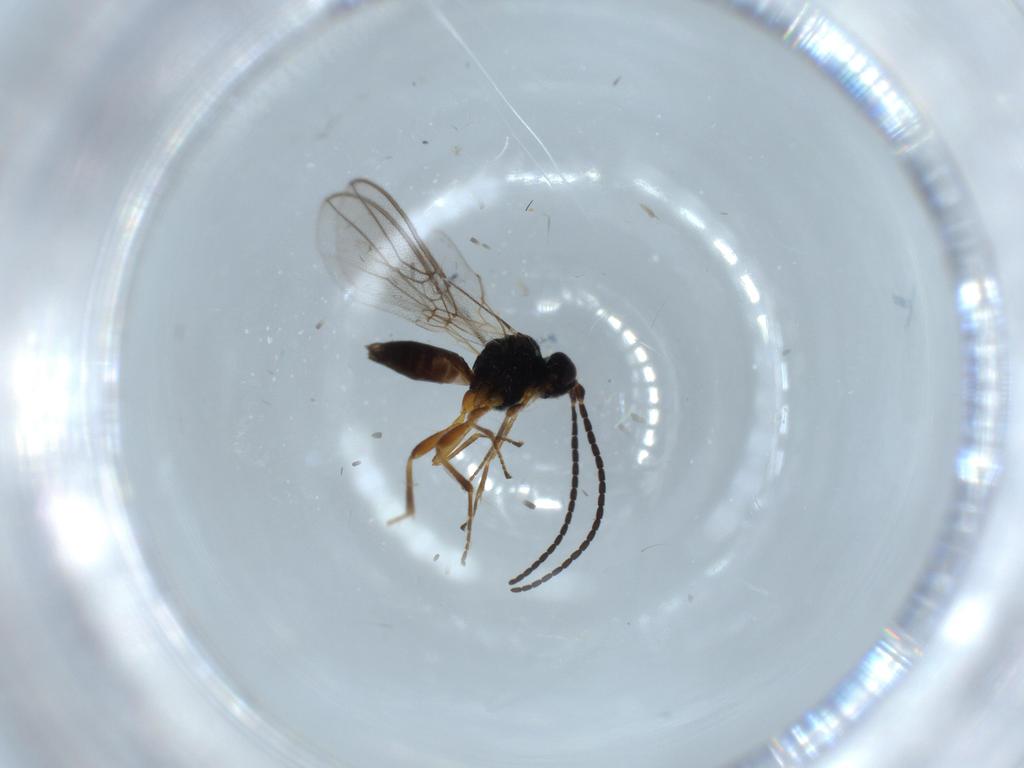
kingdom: Animalia
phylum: Arthropoda
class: Insecta
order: Hymenoptera
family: Braconidae
